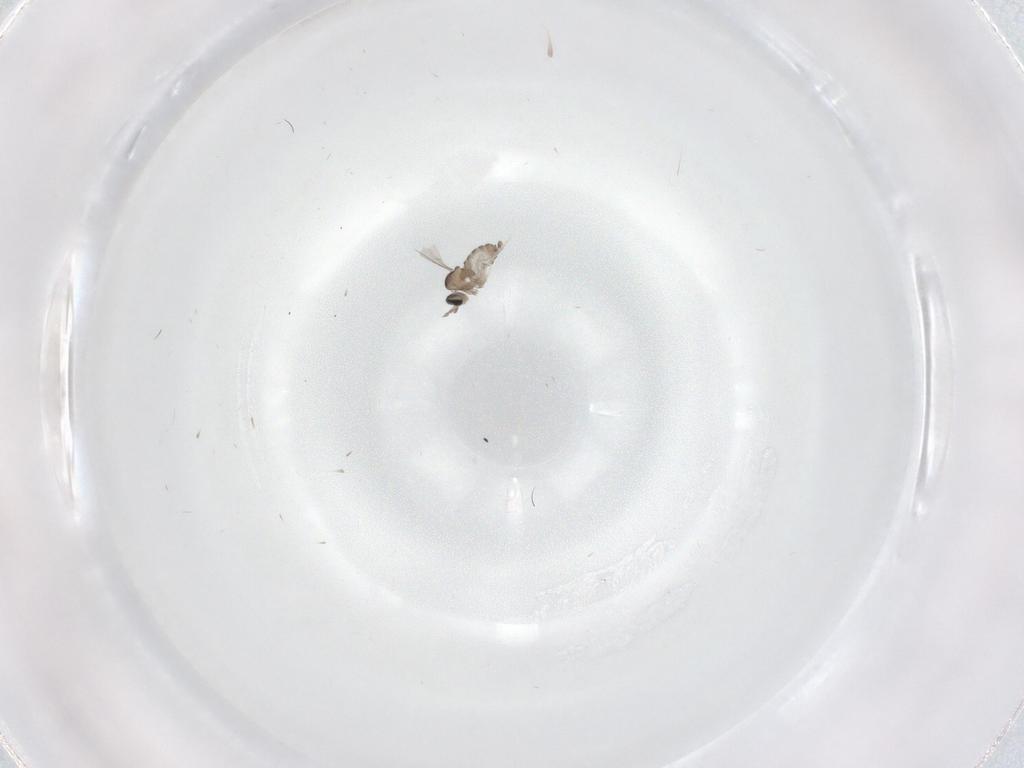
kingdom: Animalia
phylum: Arthropoda
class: Insecta
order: Diptera
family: Cecidomyiidae
